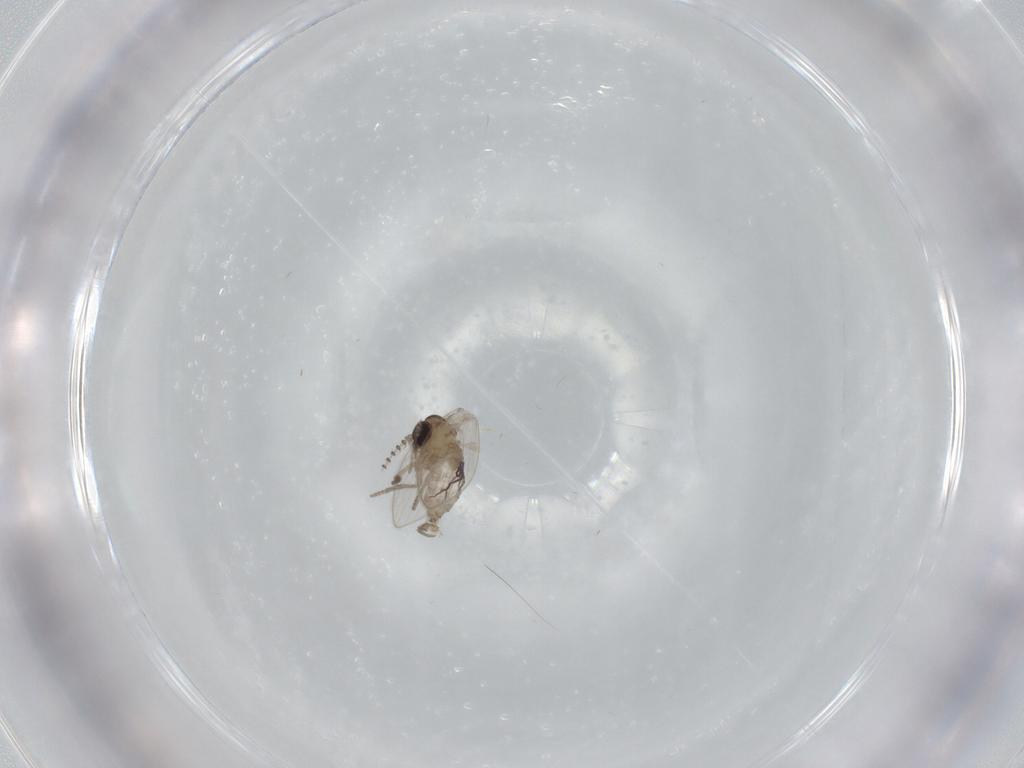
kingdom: Animalia
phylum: Arthropoda
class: Insecta
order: Diptera
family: Psychodidae
